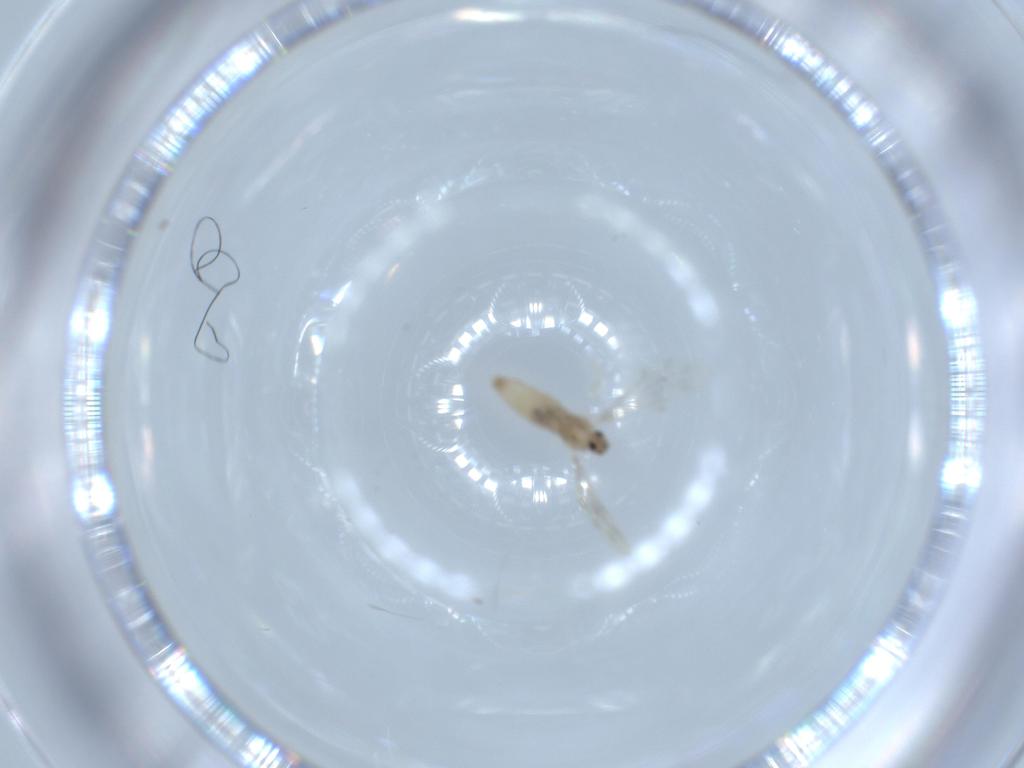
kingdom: Animalia
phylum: Arthropoda
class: Insecta
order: Diptera
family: Cecidomyiidae
